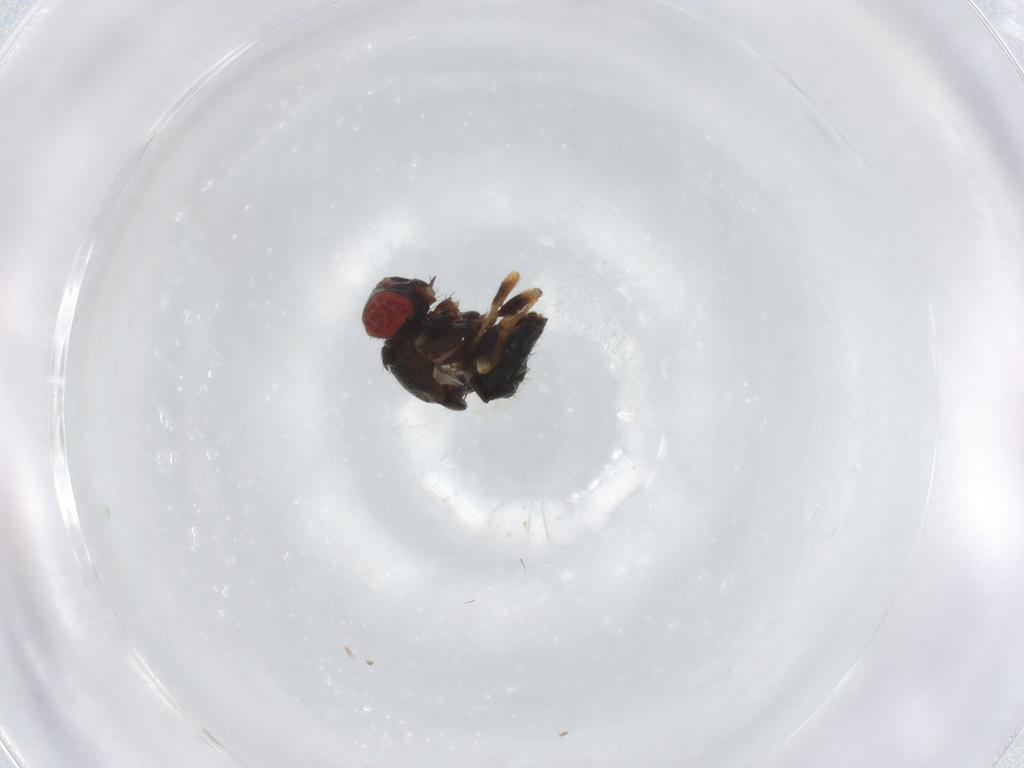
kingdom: Animalia
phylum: Arthropoda
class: Insecta
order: Diptera
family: Chamaemyiidae
